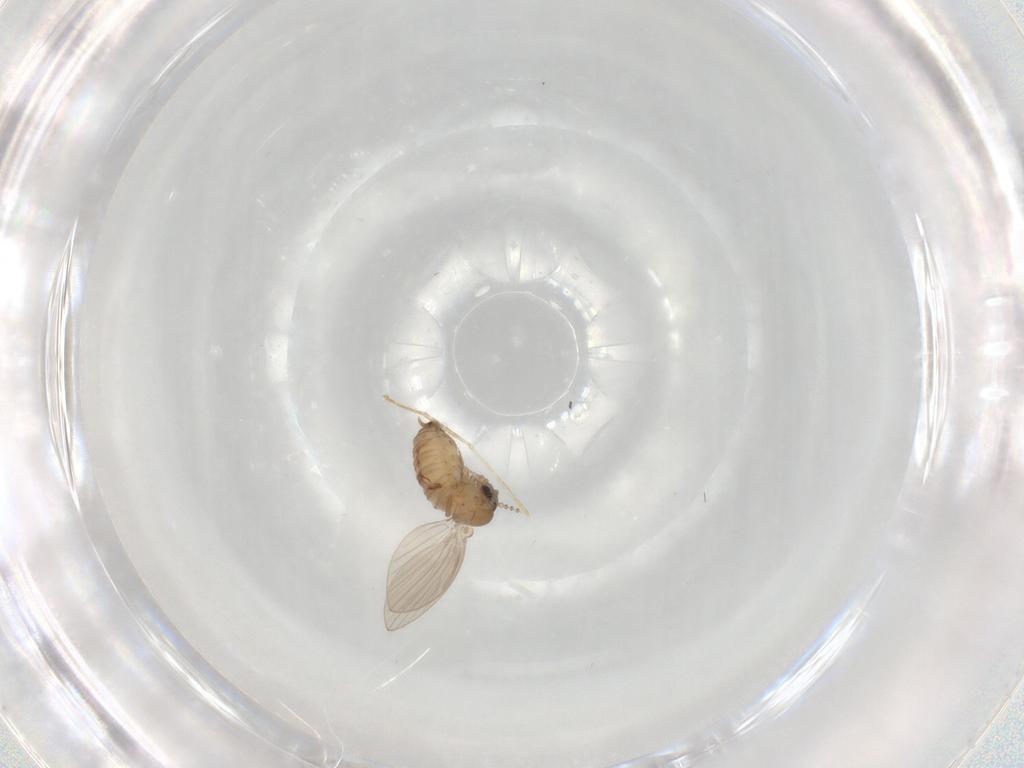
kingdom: Animalia
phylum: Arthropoda
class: Insecta
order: Diptera
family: Psychodidae
